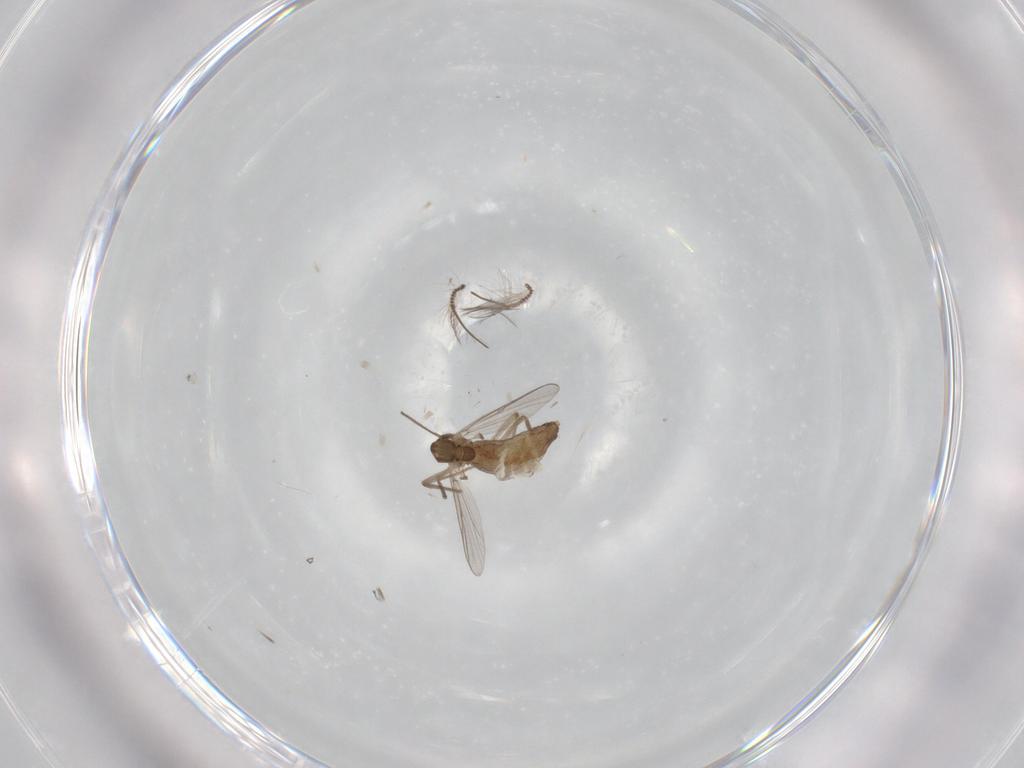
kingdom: Animalia
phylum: Arthropoda
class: Insecta
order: Diptera
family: Chironomidae
